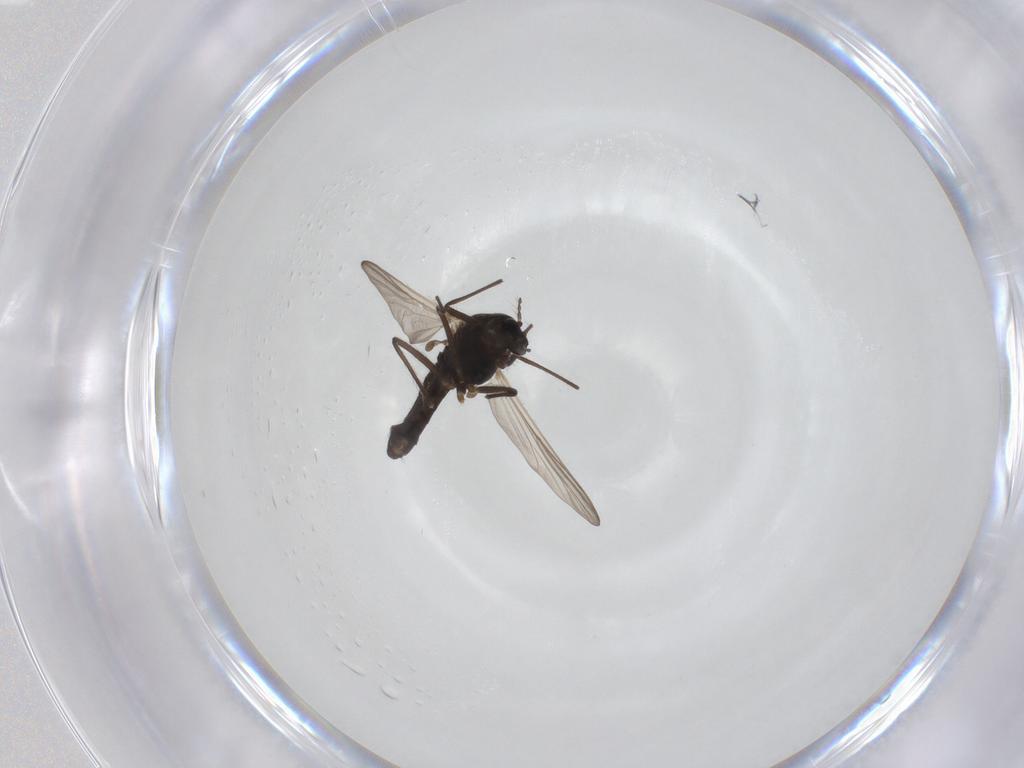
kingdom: Animalia
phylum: Arthropoda
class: Insecta
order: Diptera
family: Chironomidae
